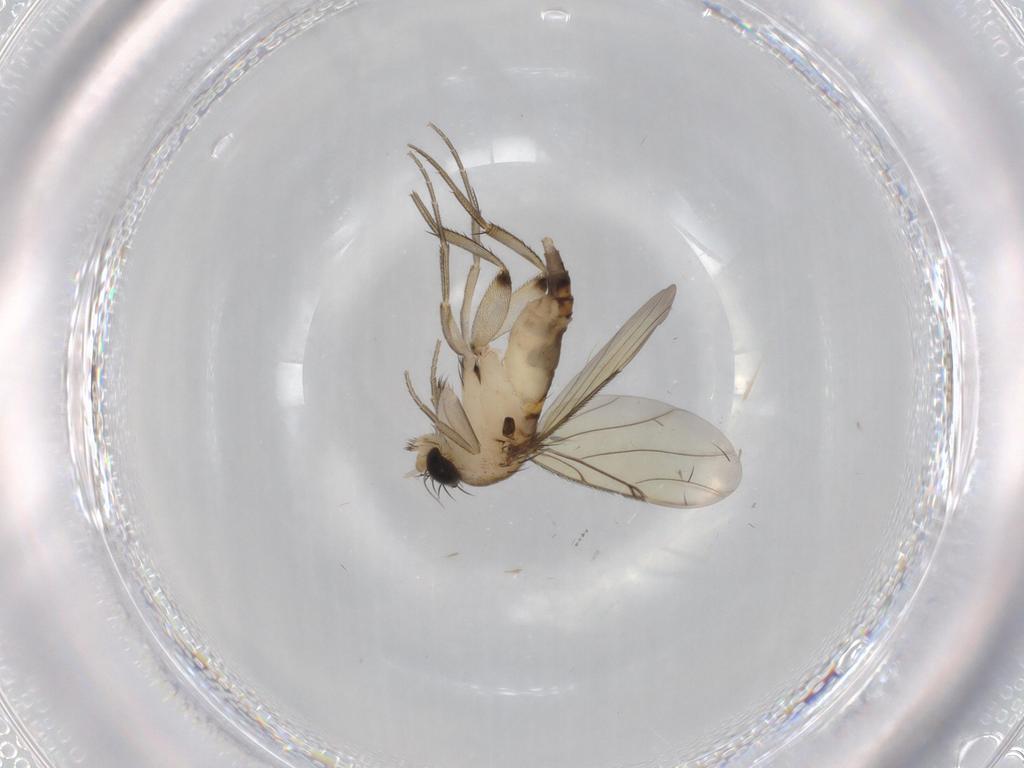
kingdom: Animalia
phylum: Arthropoda
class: Insecta
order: Diptera
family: Phoridae
